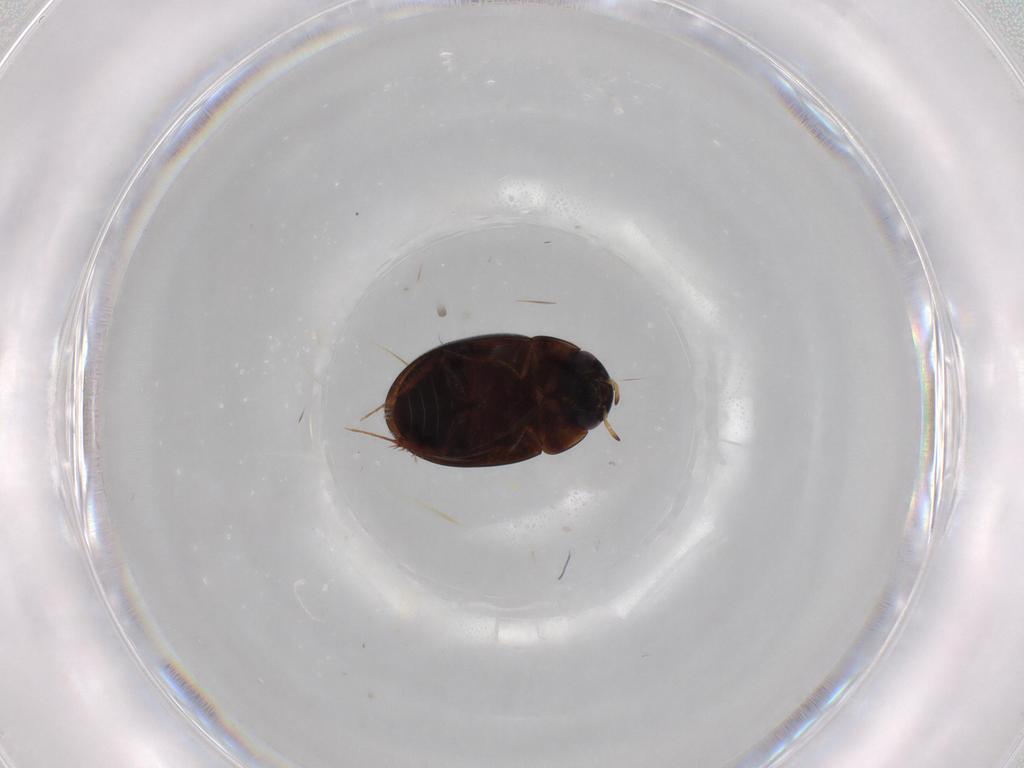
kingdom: Animalia
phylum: Arthropoda
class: Insecta
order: Coleoptera
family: Hydrophilidae
